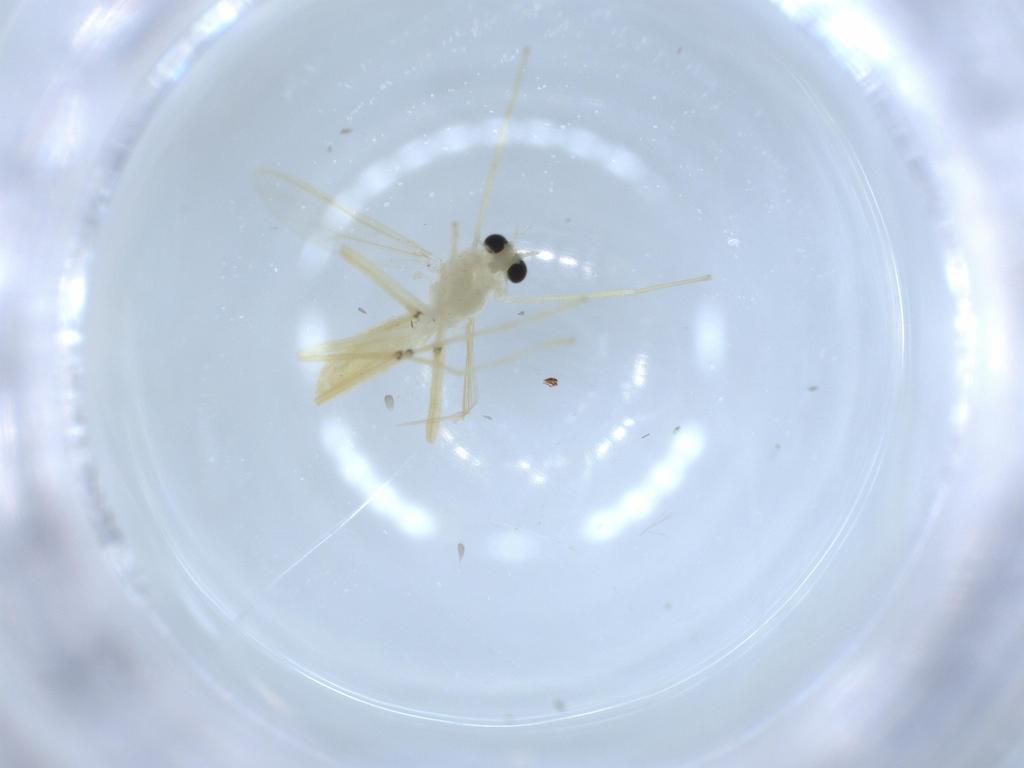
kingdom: Animalia
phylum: Arthropoda
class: Insecta
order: Diptera
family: Chironomidae
